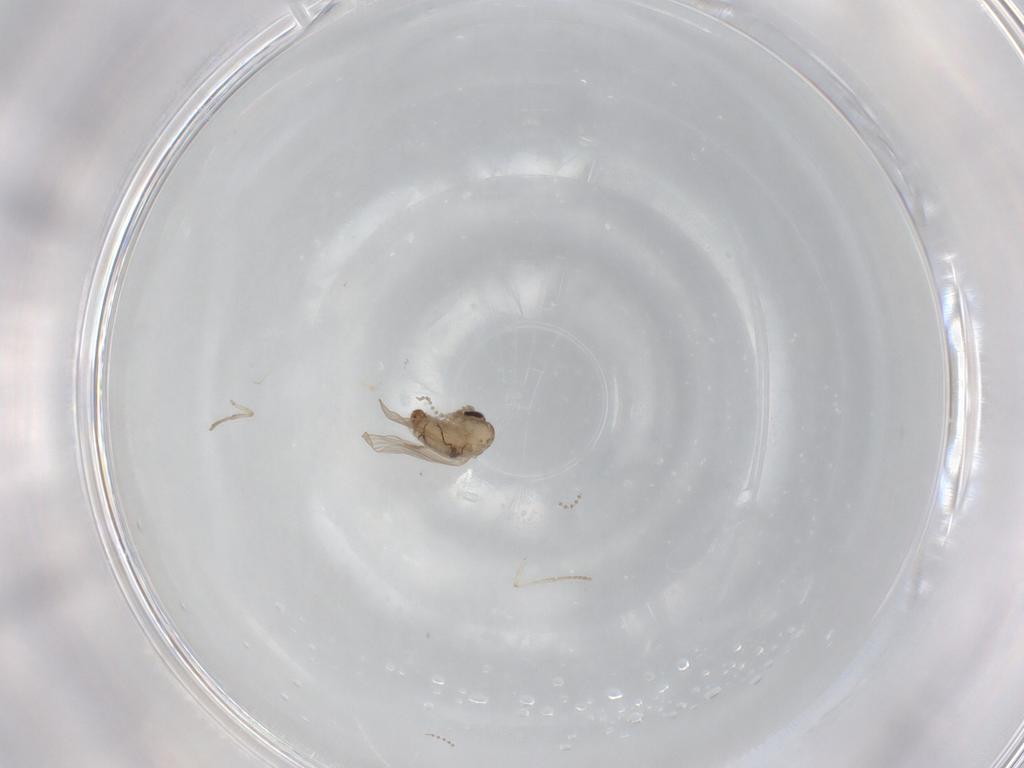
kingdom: Animalia
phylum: Arthropoda
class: Insecta
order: Diptera
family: Psychodidae
